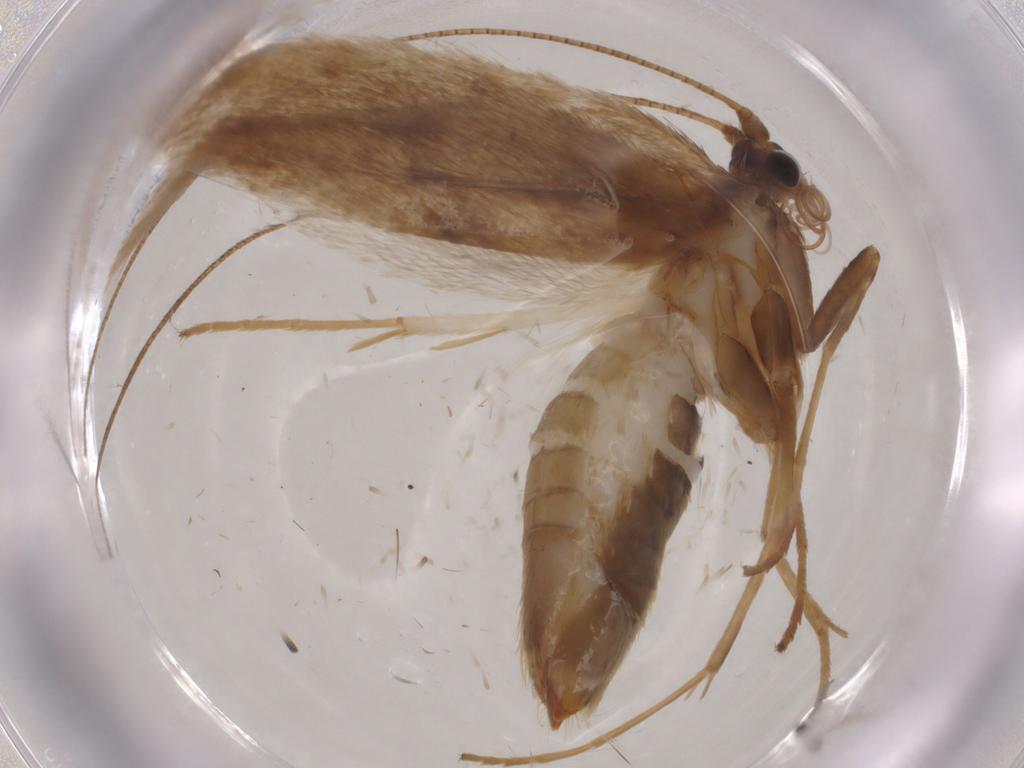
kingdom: Animalia
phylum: Arthropoda
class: Insecta
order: Lepidoptera
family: Adelidae
